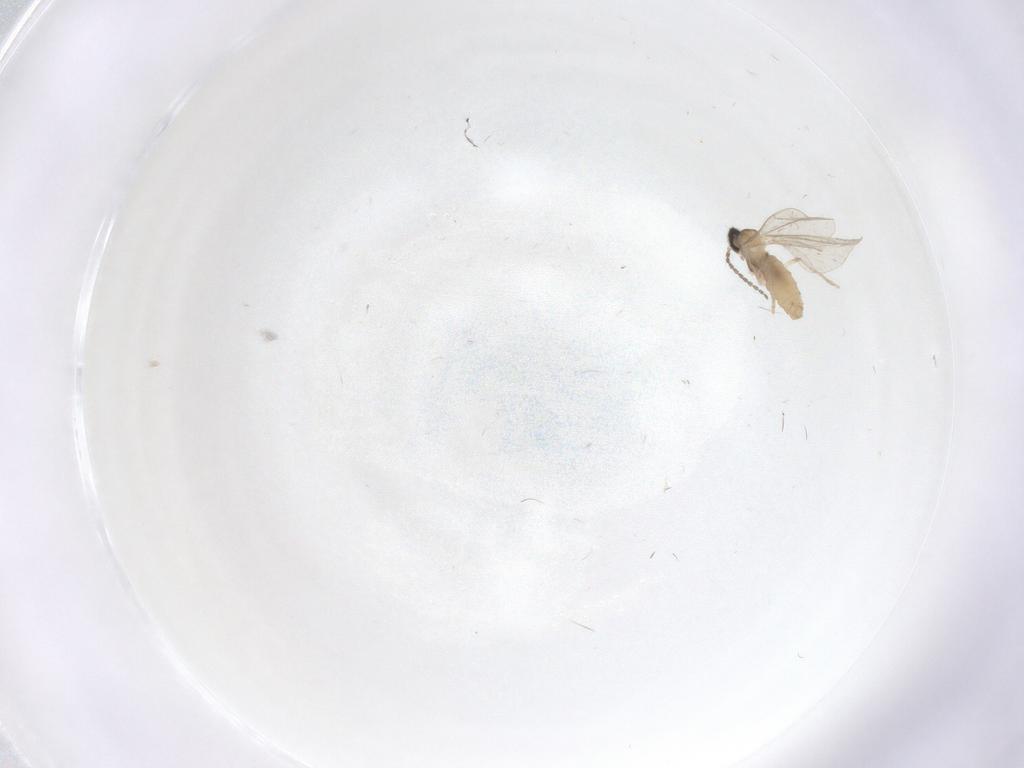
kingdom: Animalia
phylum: Arthropoda
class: Insecta
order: Diptera
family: Cecidomyiidae
